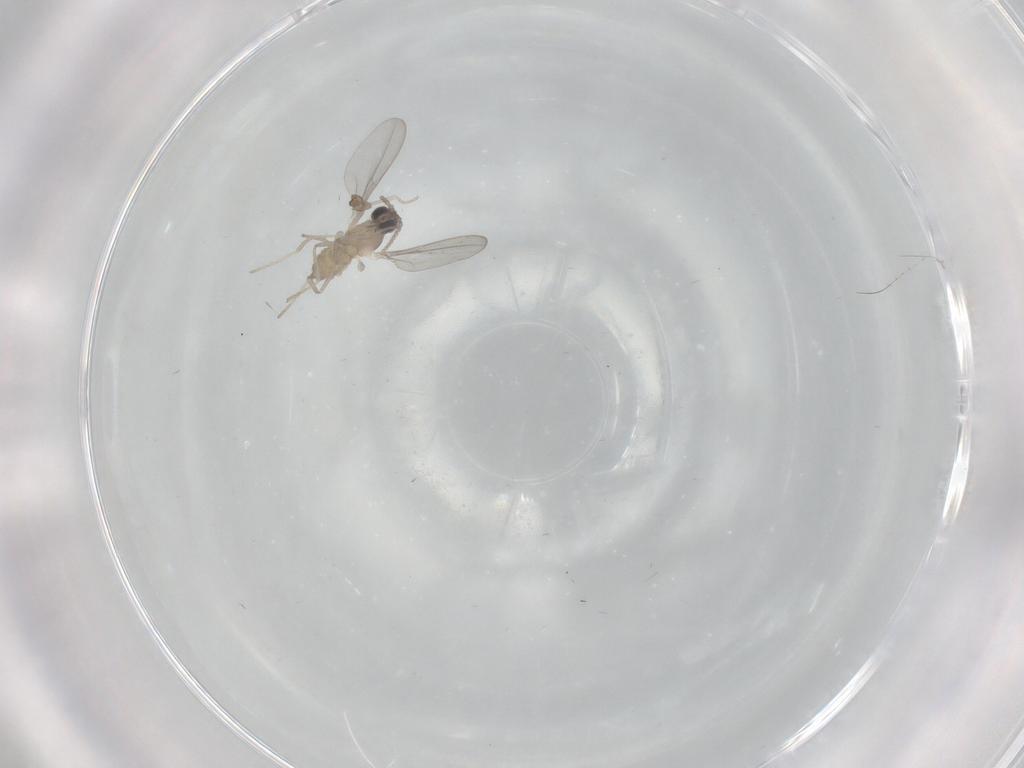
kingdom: Animalia
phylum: Arthropoda
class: Insecta
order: Diptera
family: Cecidomyiidae
